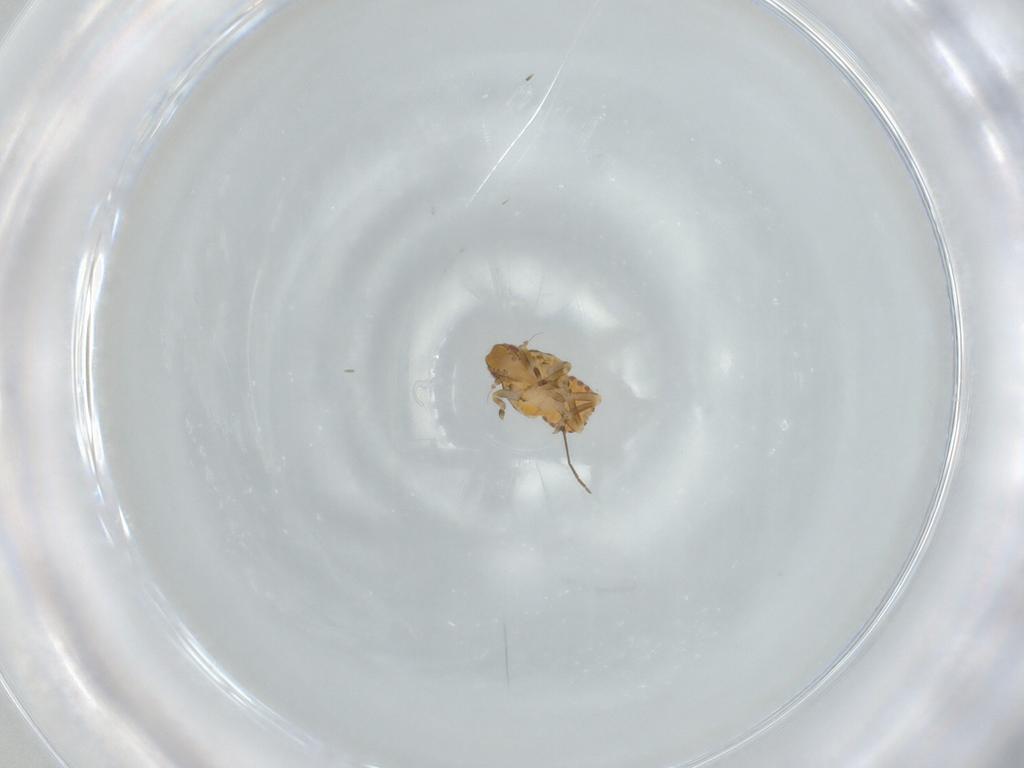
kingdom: Animalia
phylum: Arthropoda
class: Insecta
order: Hemiptera
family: Flatidae
